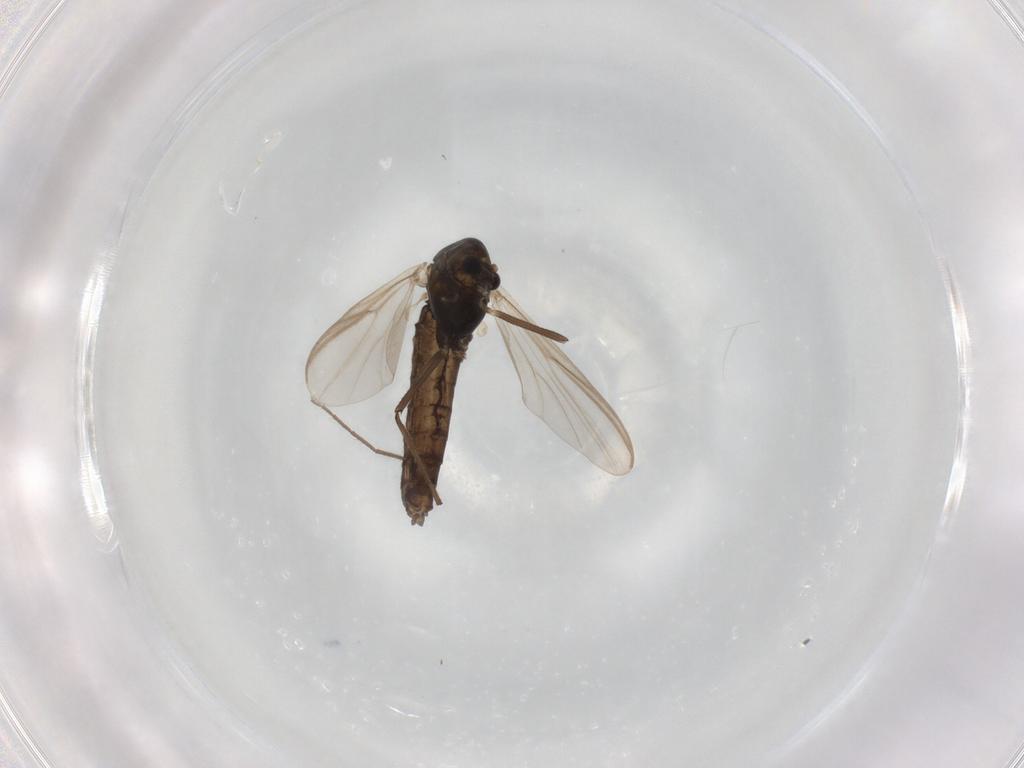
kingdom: Animalia
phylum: Arthropoda
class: Insecta
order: Diptera
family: Chironomidae
